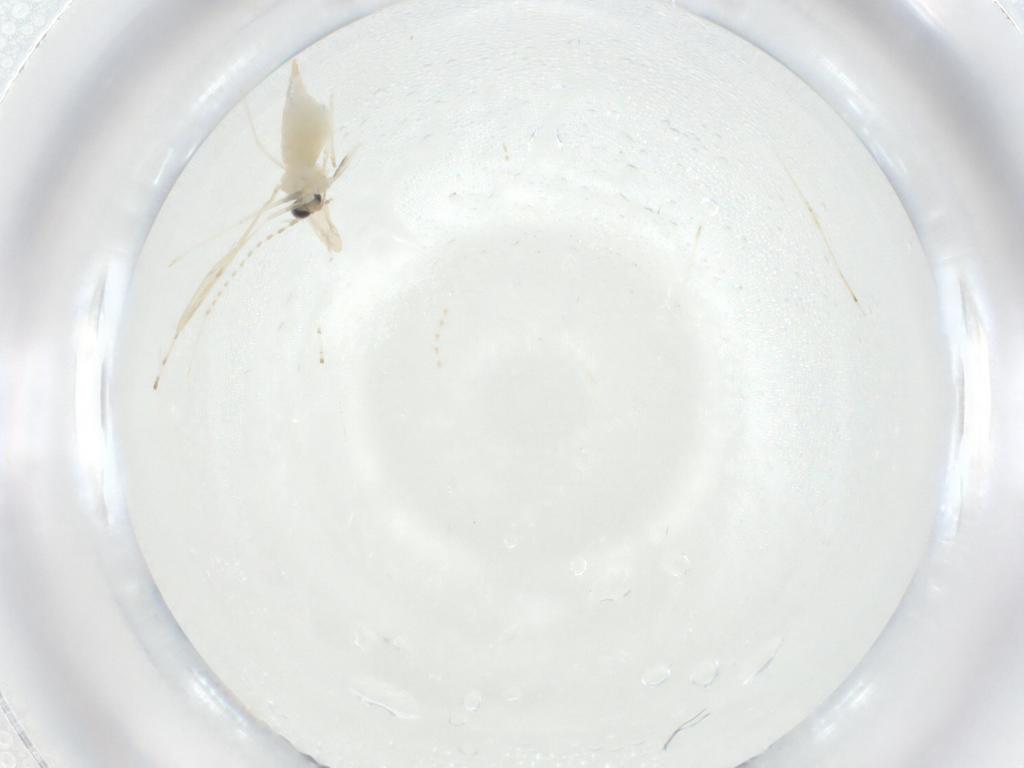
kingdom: Animalia
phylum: Arthropoda
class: Insecta
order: Diptera
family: Cecidomyiidae
